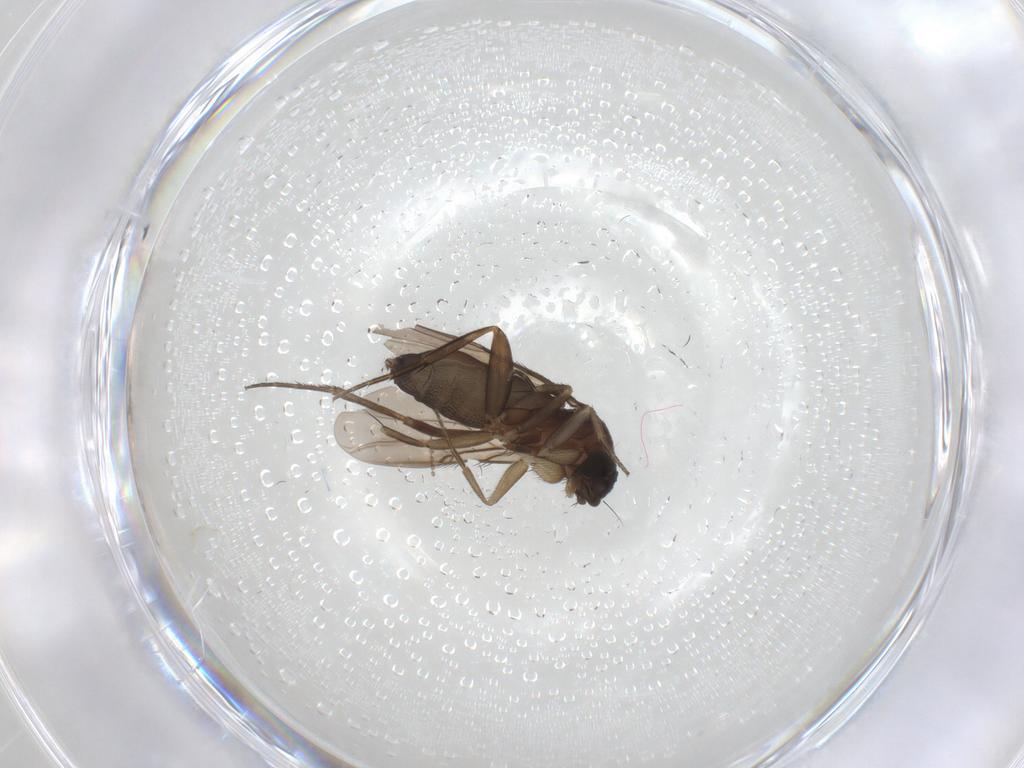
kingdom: Animalia
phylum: Arthropoda
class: Insecta
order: Diptera
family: Phoridae
